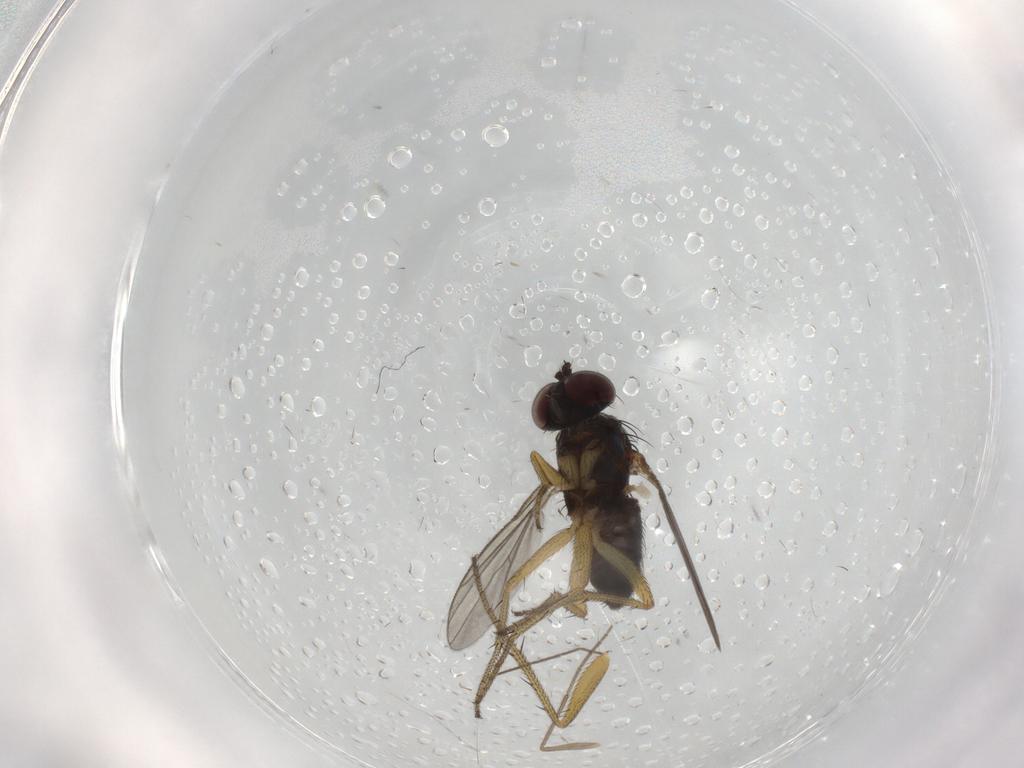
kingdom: Animalia
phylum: Arthropoda
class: Insecta
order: Diptera
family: Chironomidae
